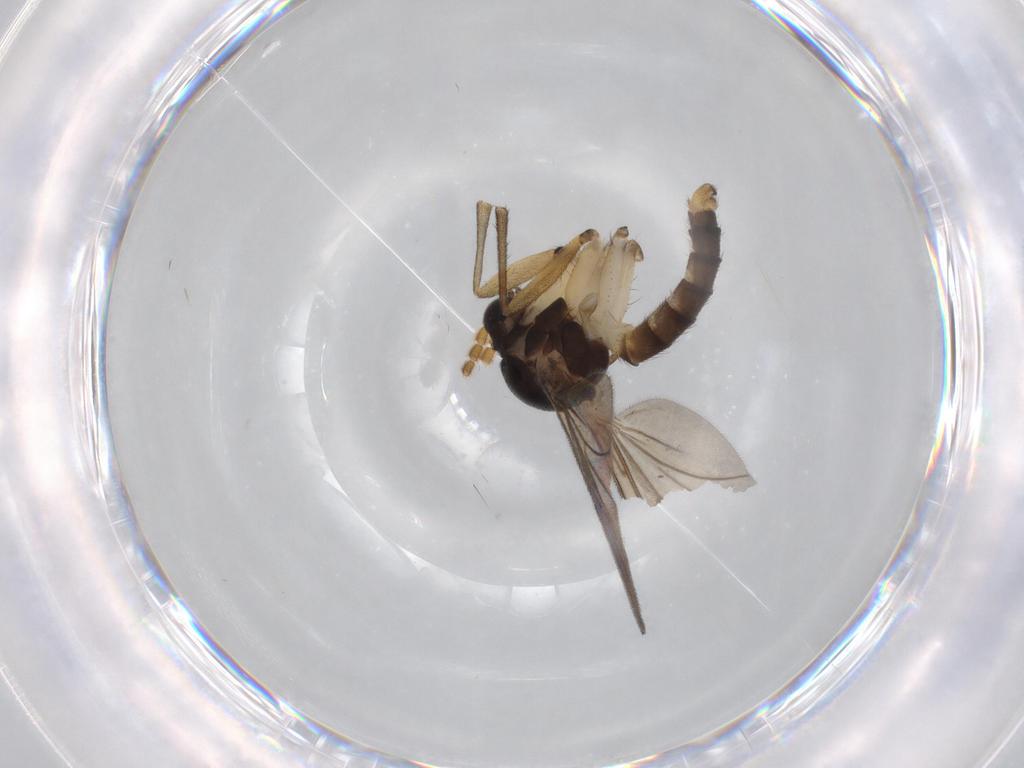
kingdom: Animalia
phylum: Arthropoda
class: Insecta
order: Diptera
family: Hybotidae
